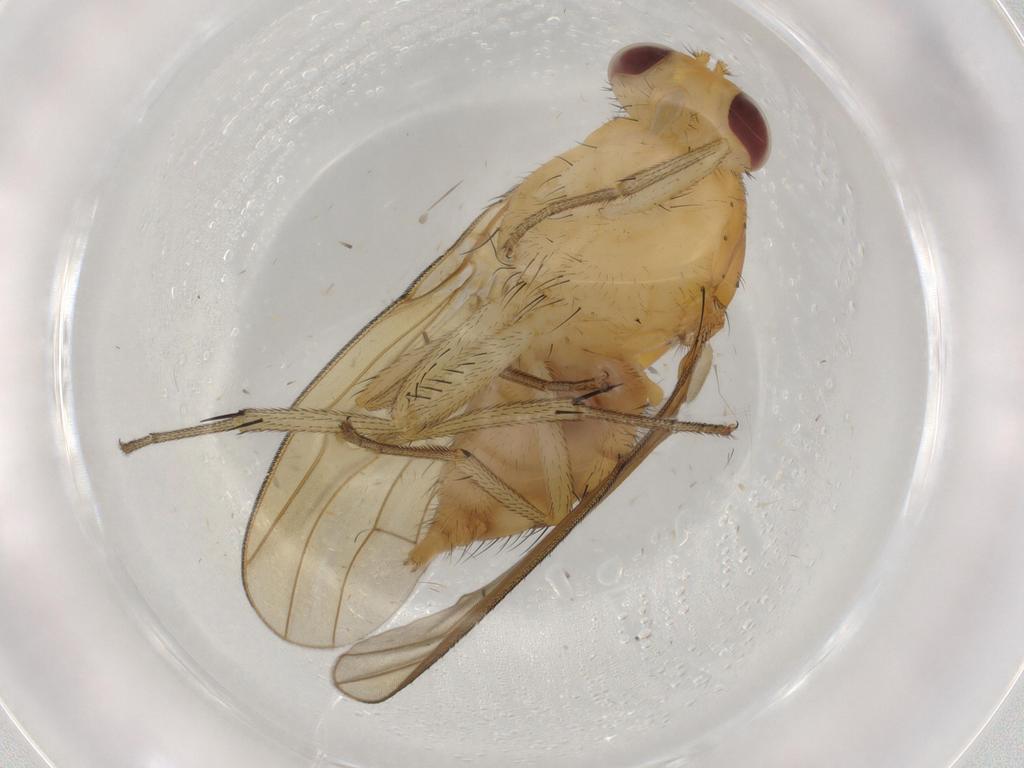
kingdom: Animalia
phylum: Arthropoda
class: Insecta
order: Diptera
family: Chironomidae
